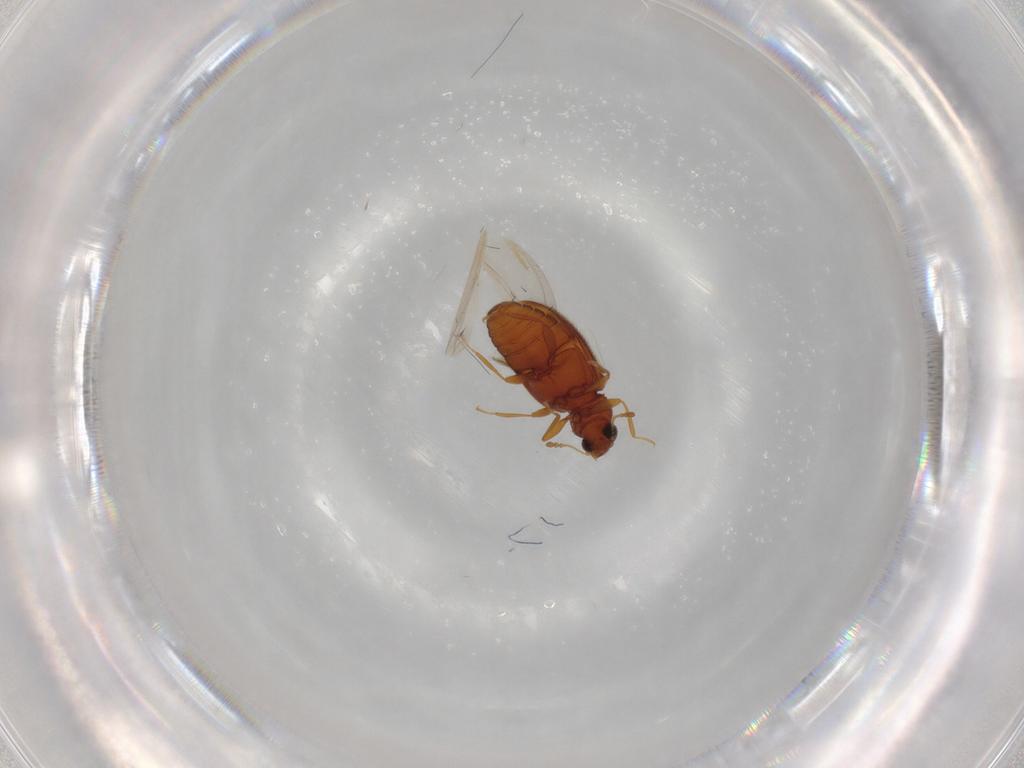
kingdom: Animalia
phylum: Arthropoda
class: Insecta
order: Coleoptera
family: Latridiidae
